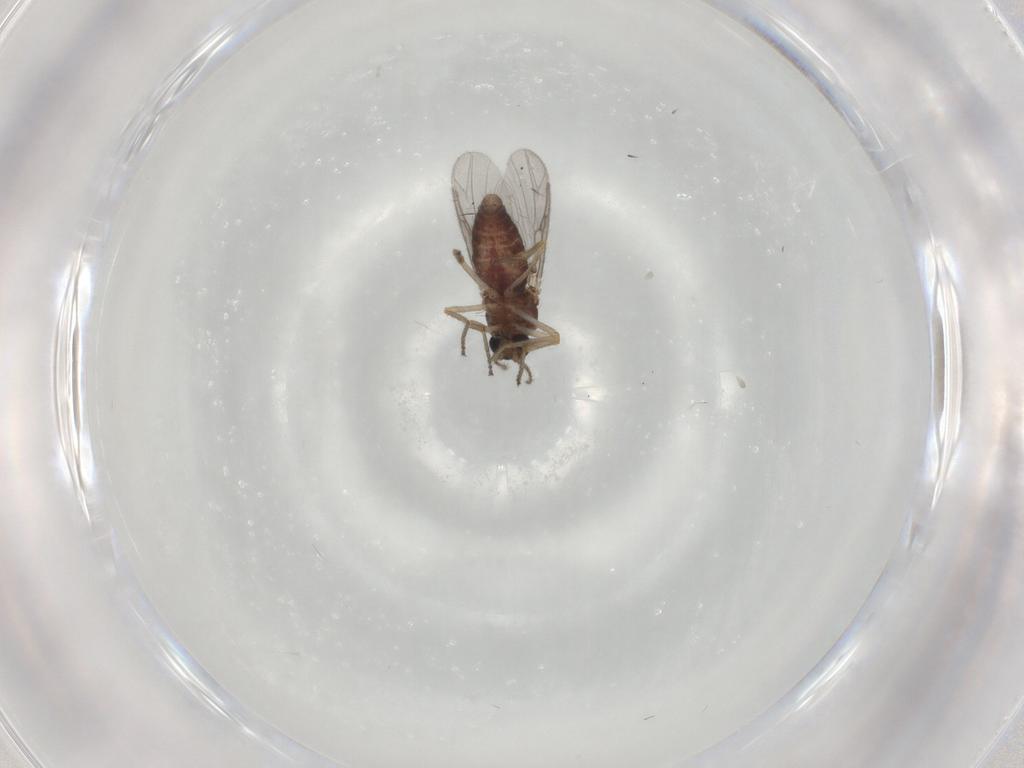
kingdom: Animalia
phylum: Arthropoda
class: Insecta
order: Diptera
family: Ceratopogonidae
